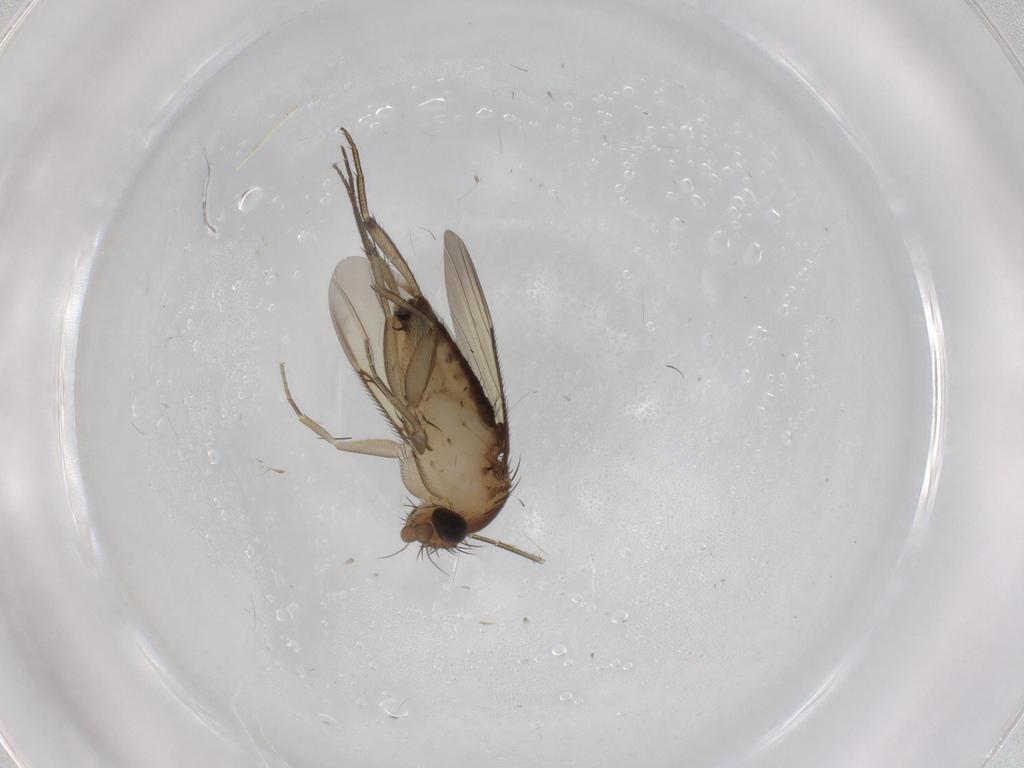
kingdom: Animalia
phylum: Arthropoda
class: Insecta
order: Diptera
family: Phoridae
